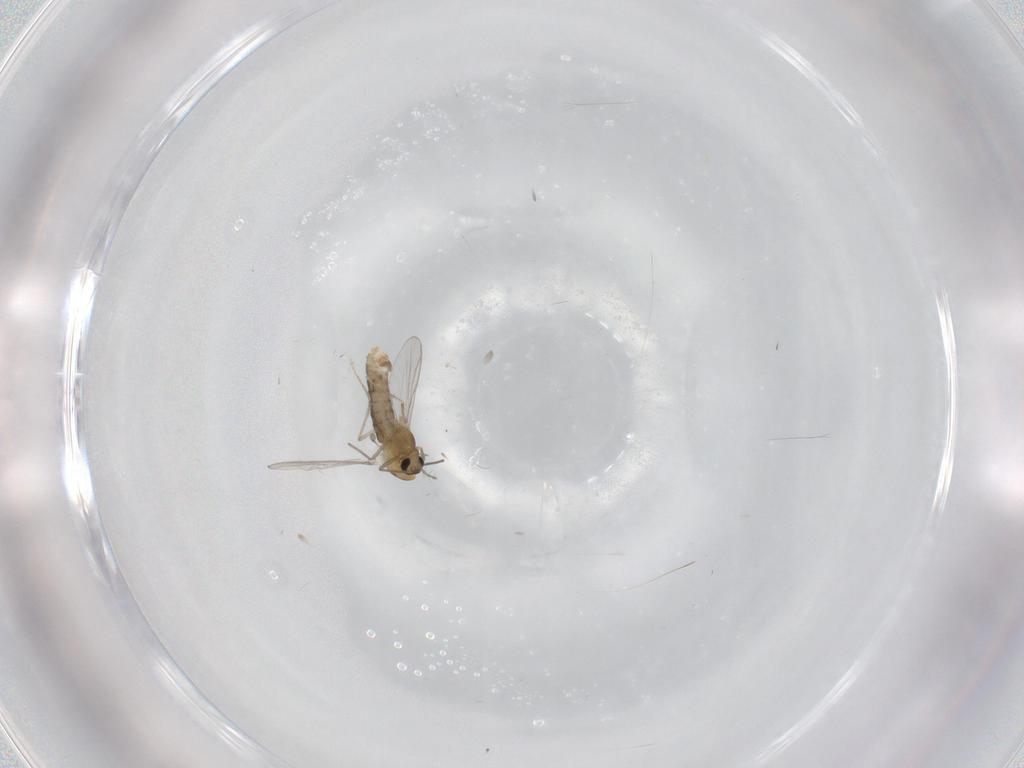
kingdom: Animalia
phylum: Arthropoda
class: Insecta
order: Diptera
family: Chironomidae
